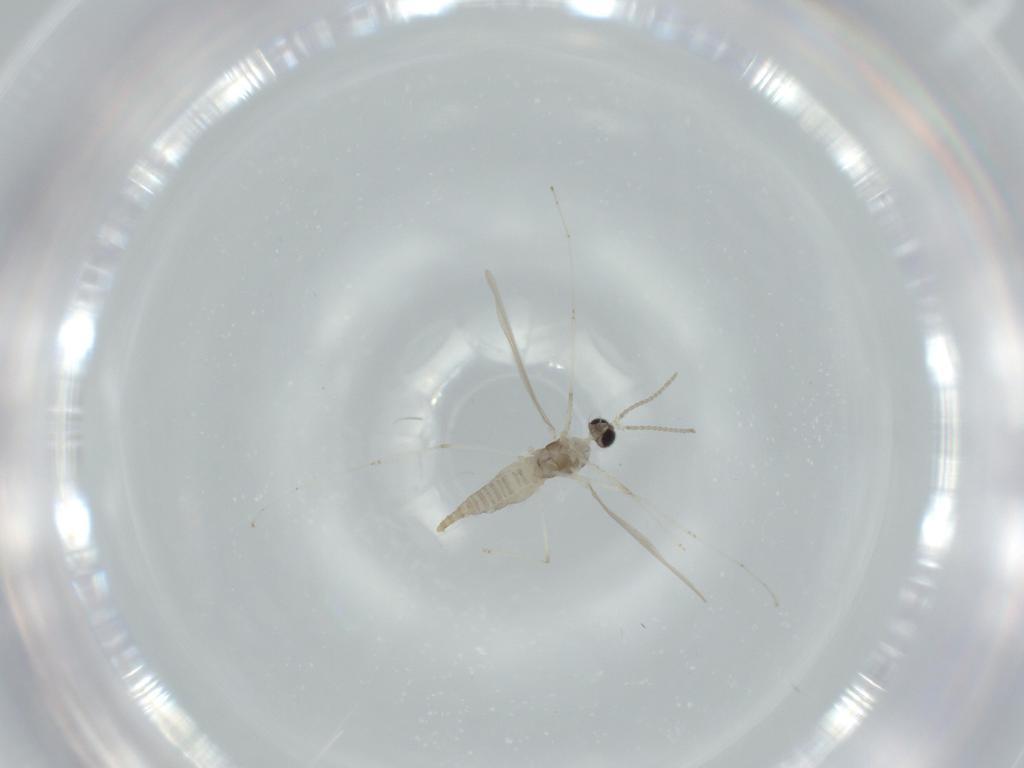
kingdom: Animalia
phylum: Arthropoda
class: Insecta
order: Diptera
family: Cecidomyiidae
